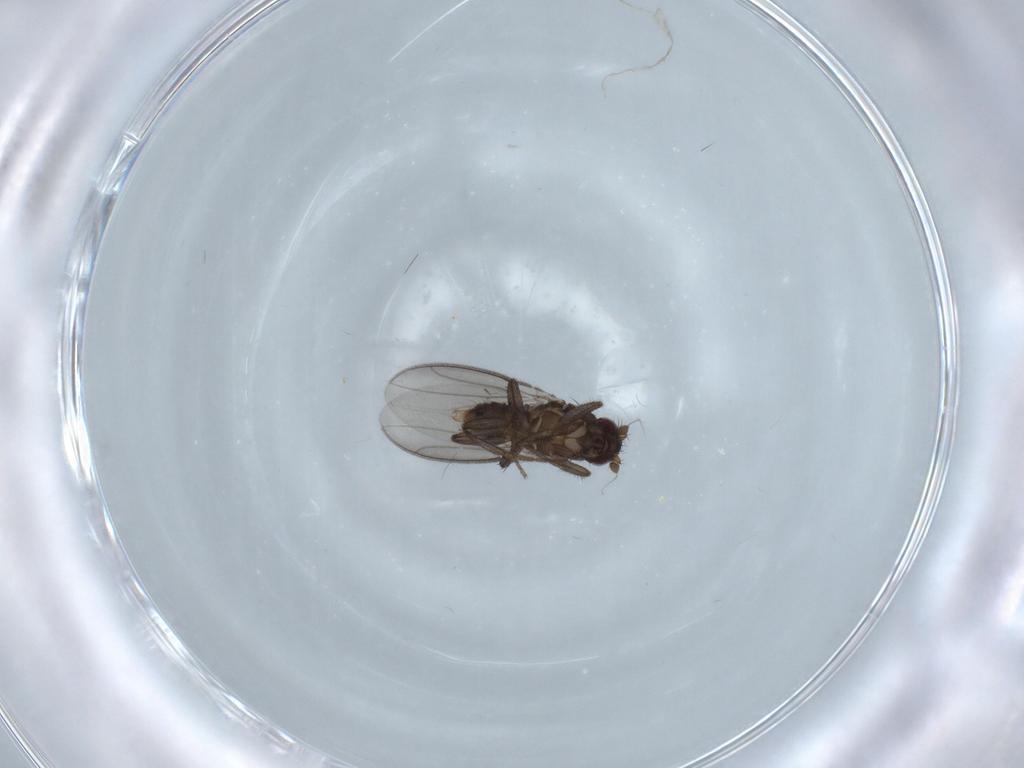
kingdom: Animalia
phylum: Arthropoda
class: Insecta
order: Diptera
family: Sphaeroceridae
